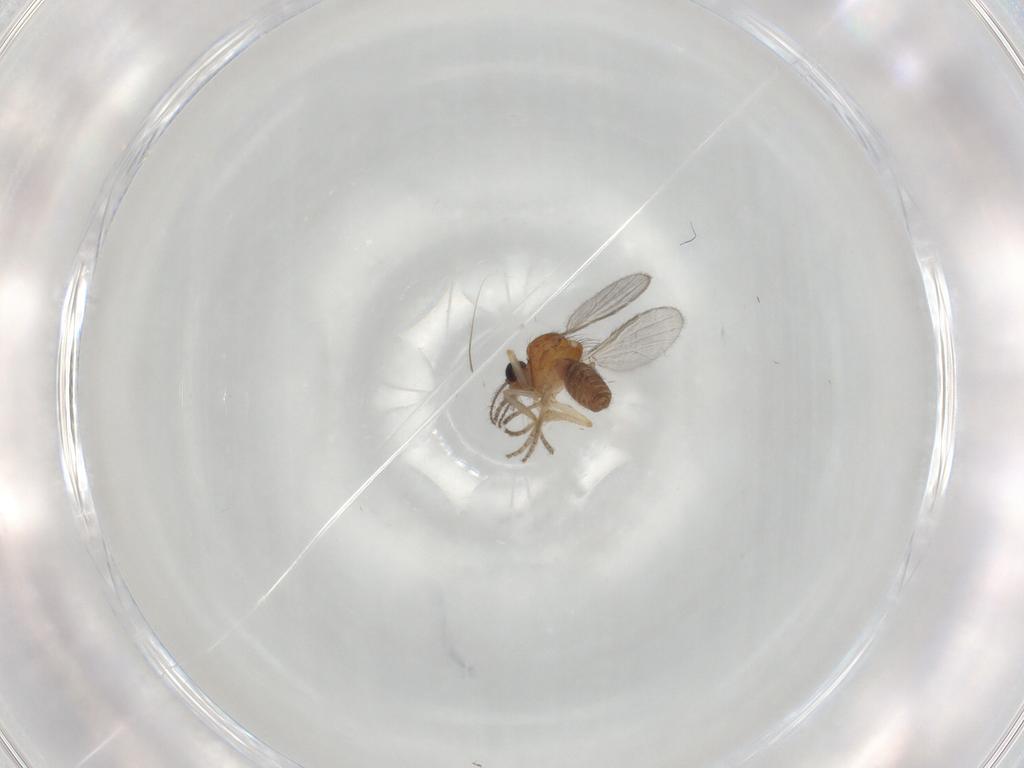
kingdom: Animalia
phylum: Arthropoda
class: Insecta
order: Diptera
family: Ceratopogonidae
